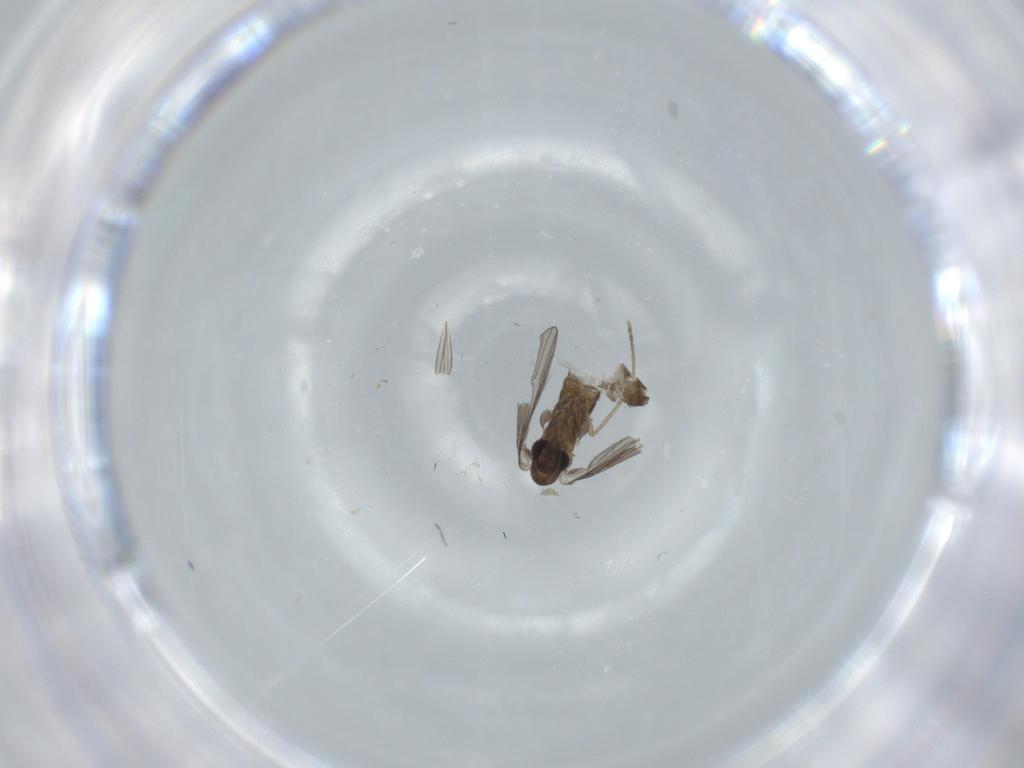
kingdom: Animalia
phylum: Arthropoda
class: Insecta
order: Diptera
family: Psychodidae
